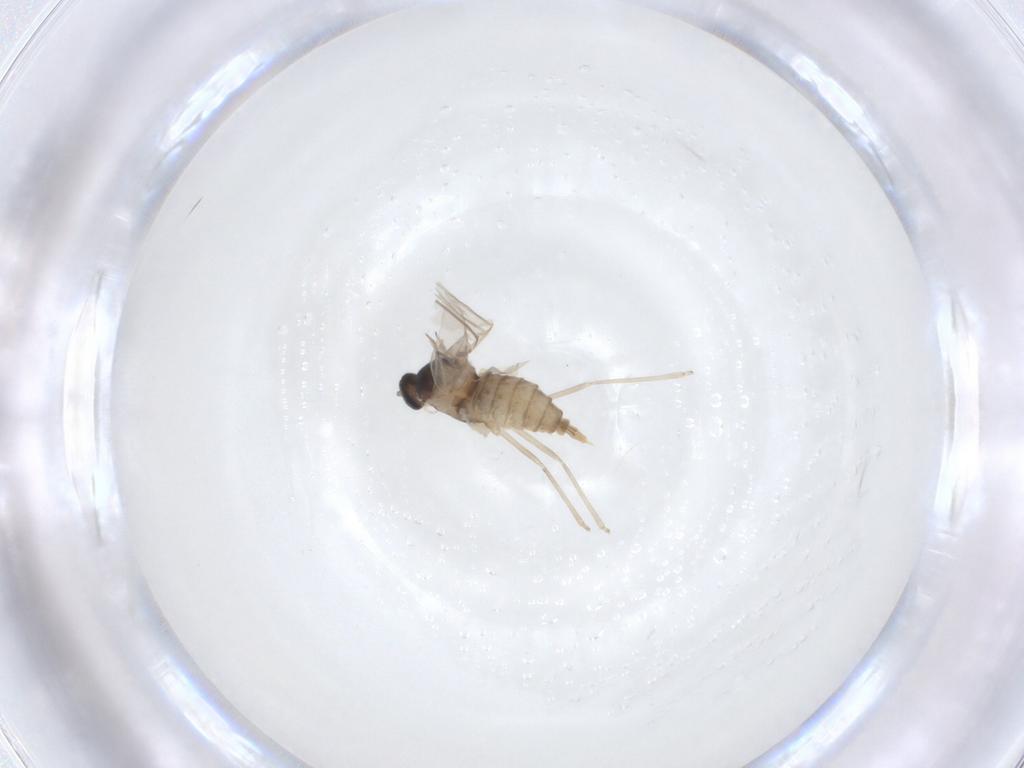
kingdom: Animalia
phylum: Arthropoda
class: Insecta
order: Diptera
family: Cecidomyiidae
